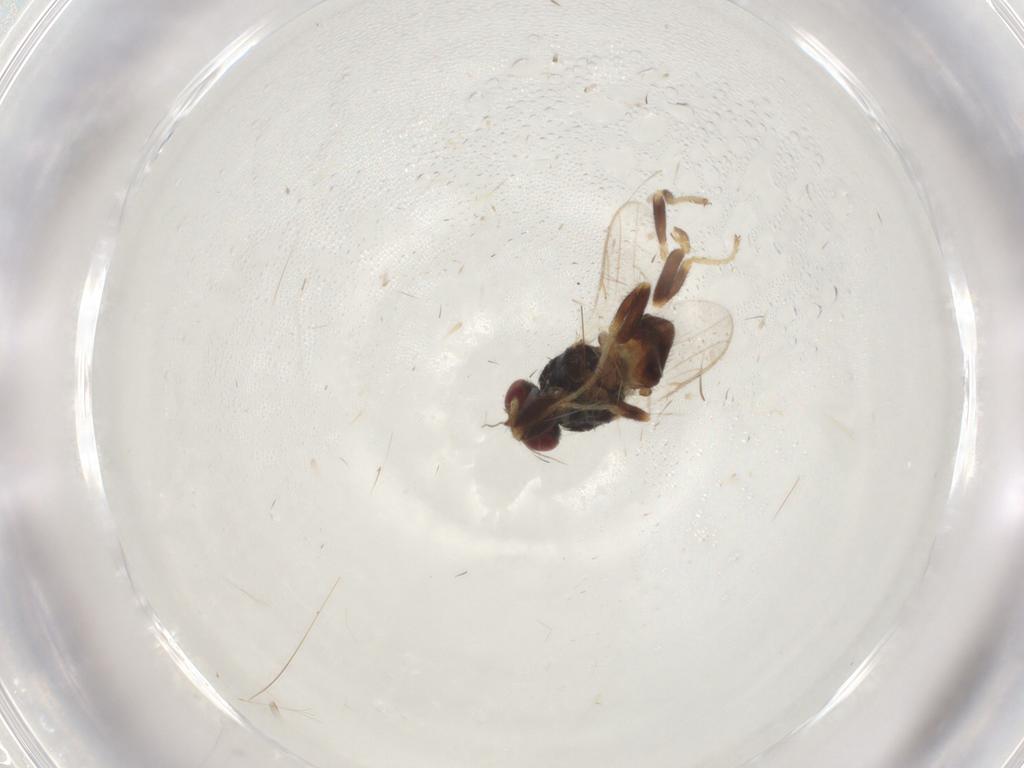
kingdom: Animalia
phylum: Arthropoda
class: Insecta
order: Diptera
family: Chloropidae
